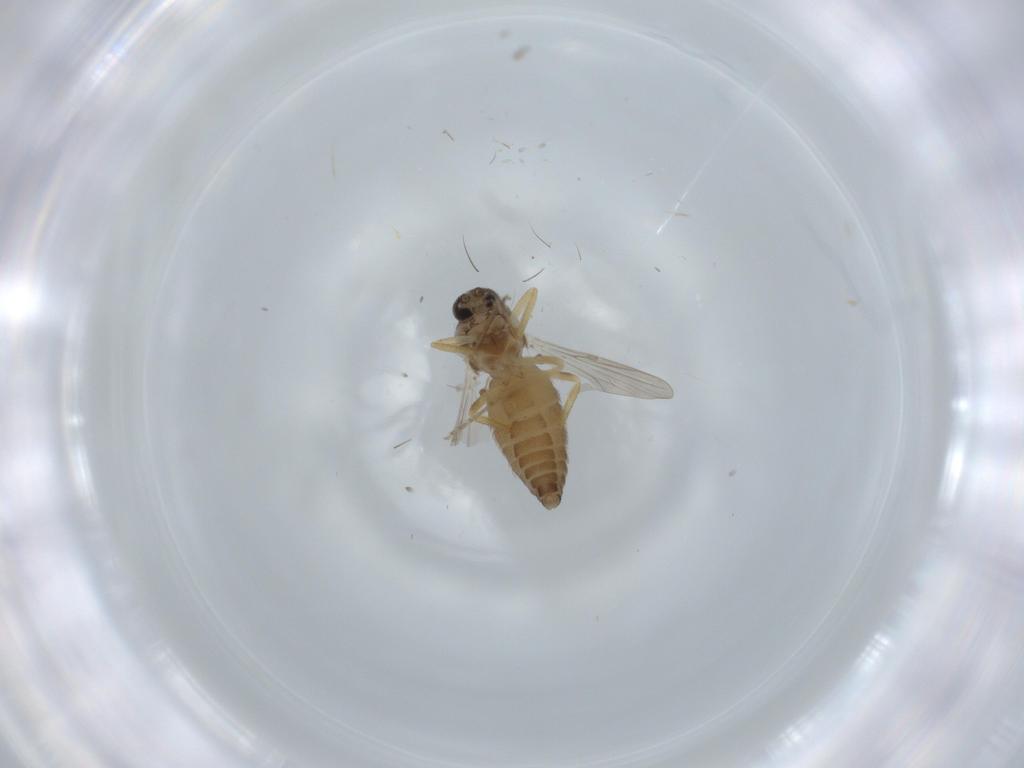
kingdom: Animalia
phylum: Arthropoda
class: Insecta
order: Diptera
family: Ceratopogonidae
